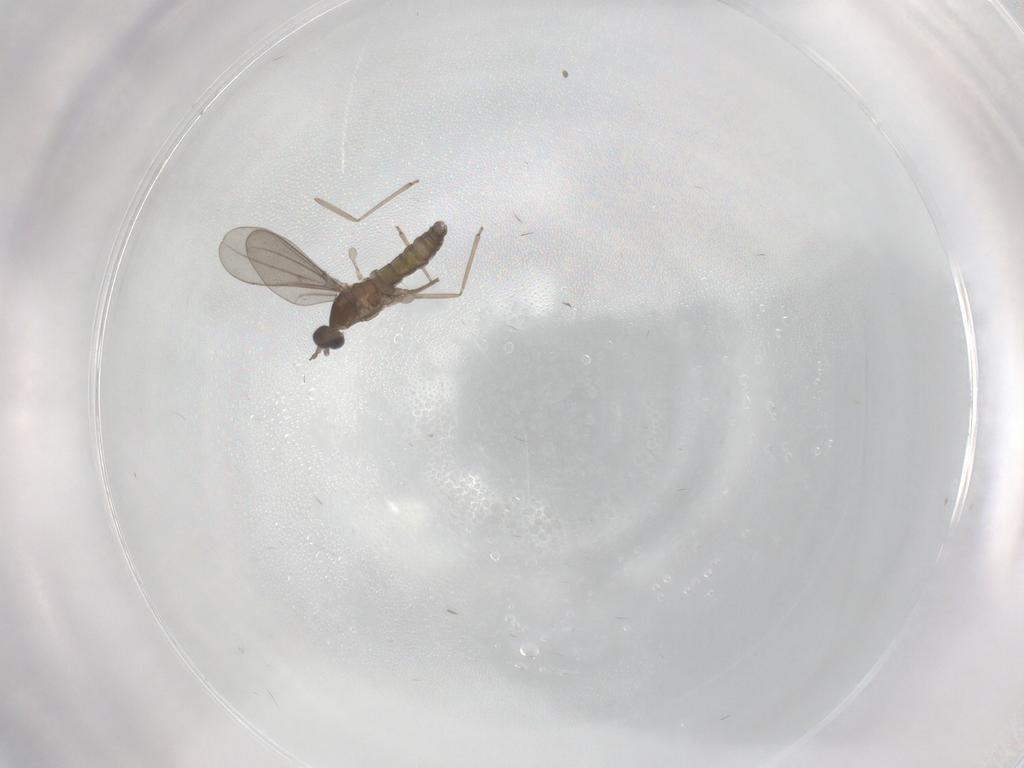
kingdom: Animalia
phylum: Arthropoda
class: Insecta
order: Diptera
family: Cecidomyiidae
